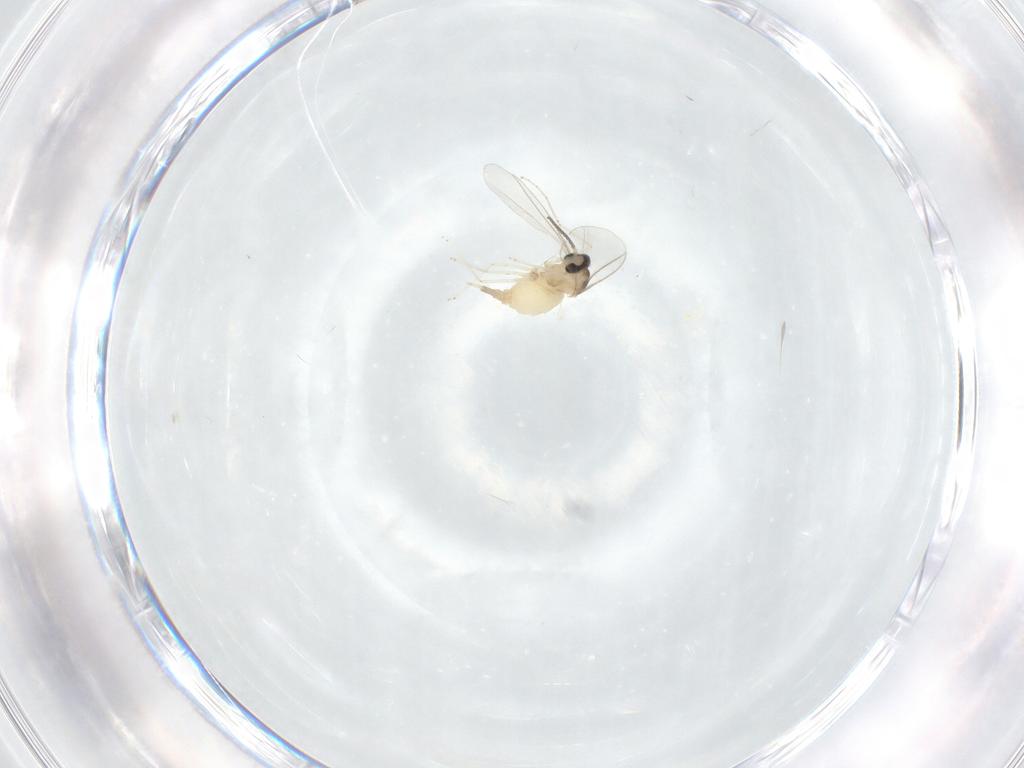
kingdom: Animalia
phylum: Arthropoda
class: Insecta
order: Diptera
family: Cecidomyiidae
